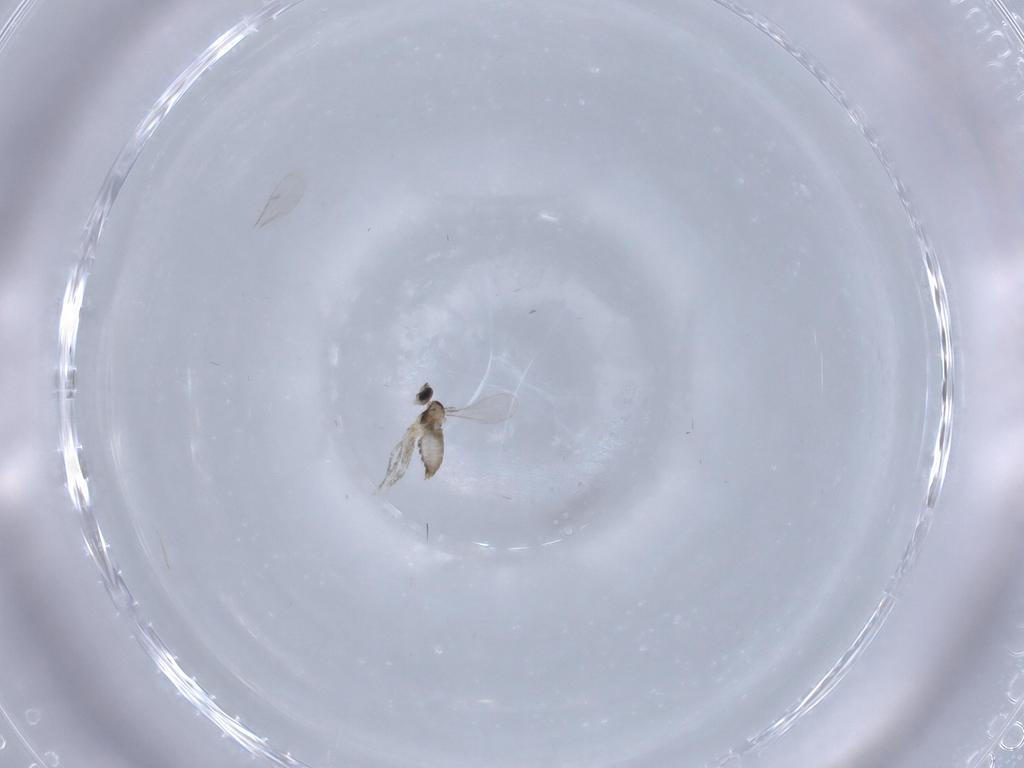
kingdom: Animalia
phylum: Arthropoda
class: Insecta
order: Diptera
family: Cecidomyiidae
